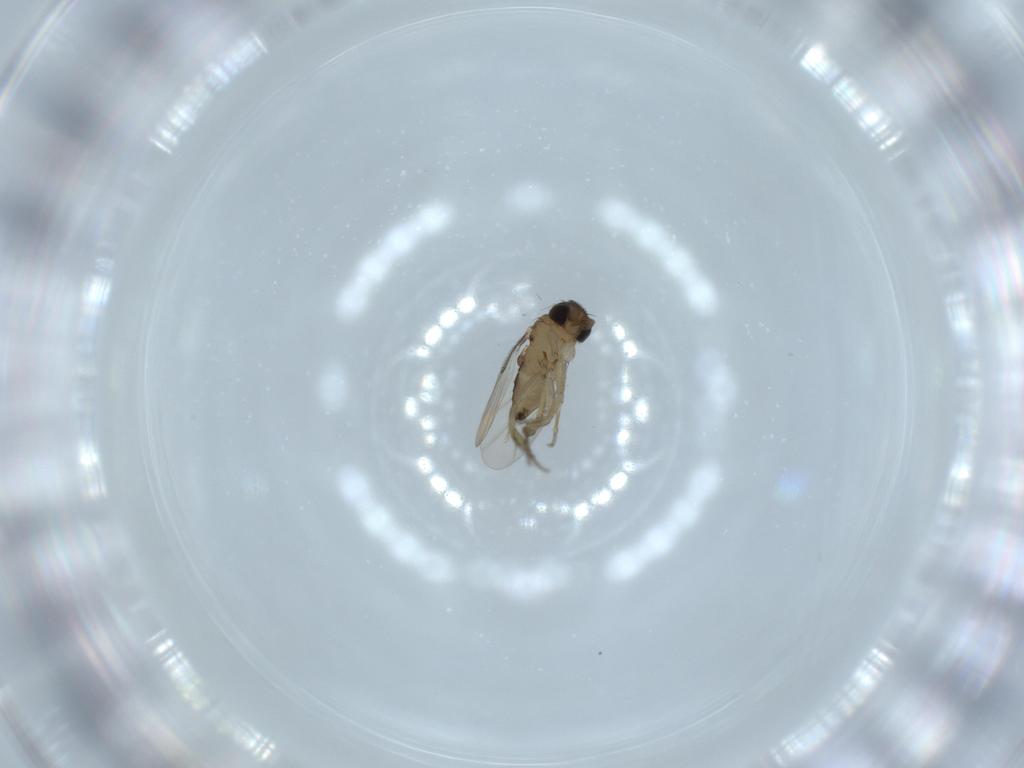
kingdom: Animalia
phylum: Arthropoda
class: Insecta
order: Diptera
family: Phoridae
